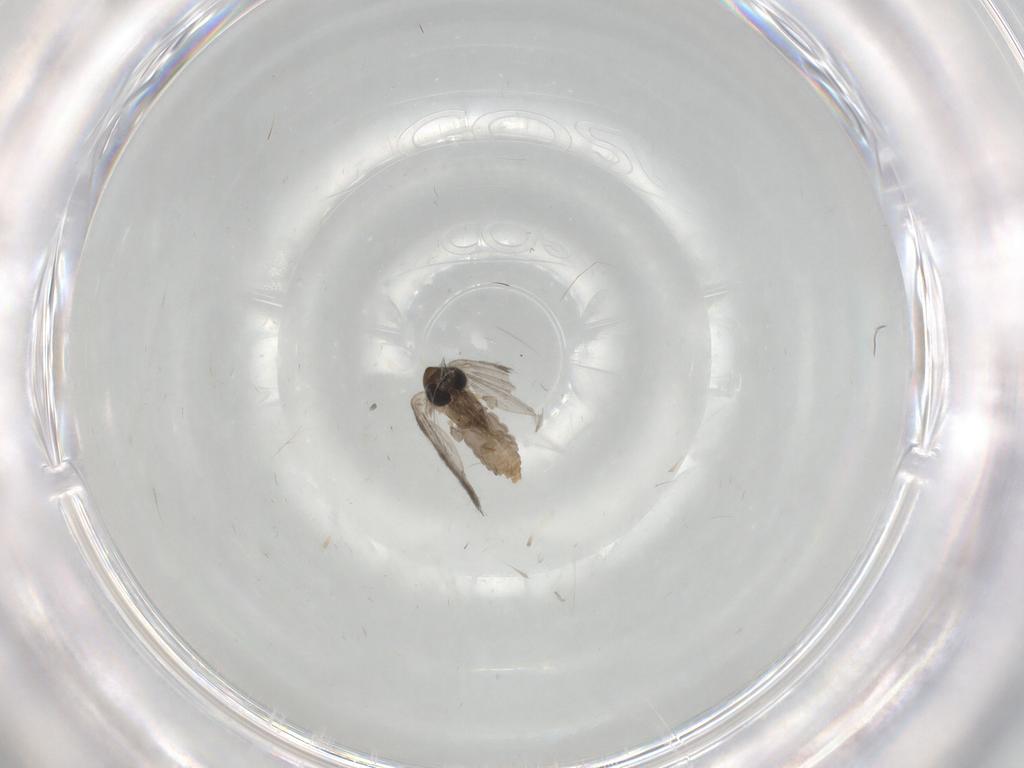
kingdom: Animalia
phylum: Arthropoda
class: Insecta
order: Diptera
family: Psychodidae
